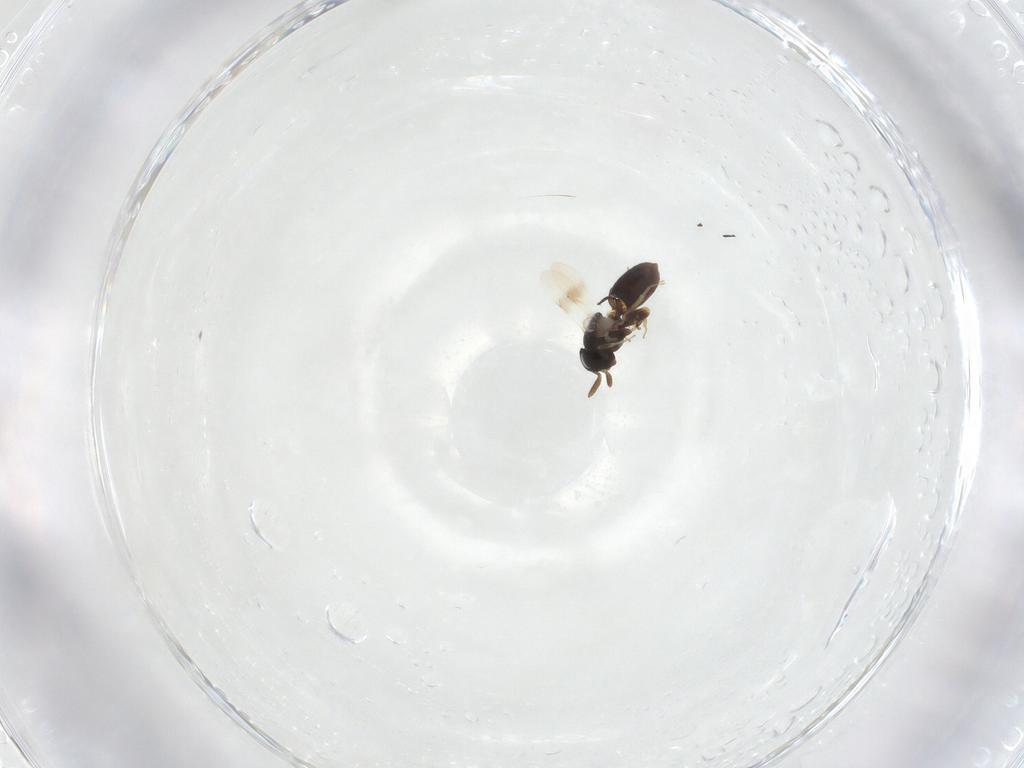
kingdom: Animalia
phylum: Arthropoda
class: Insecta
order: Hymenoptera
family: Scelionidae
